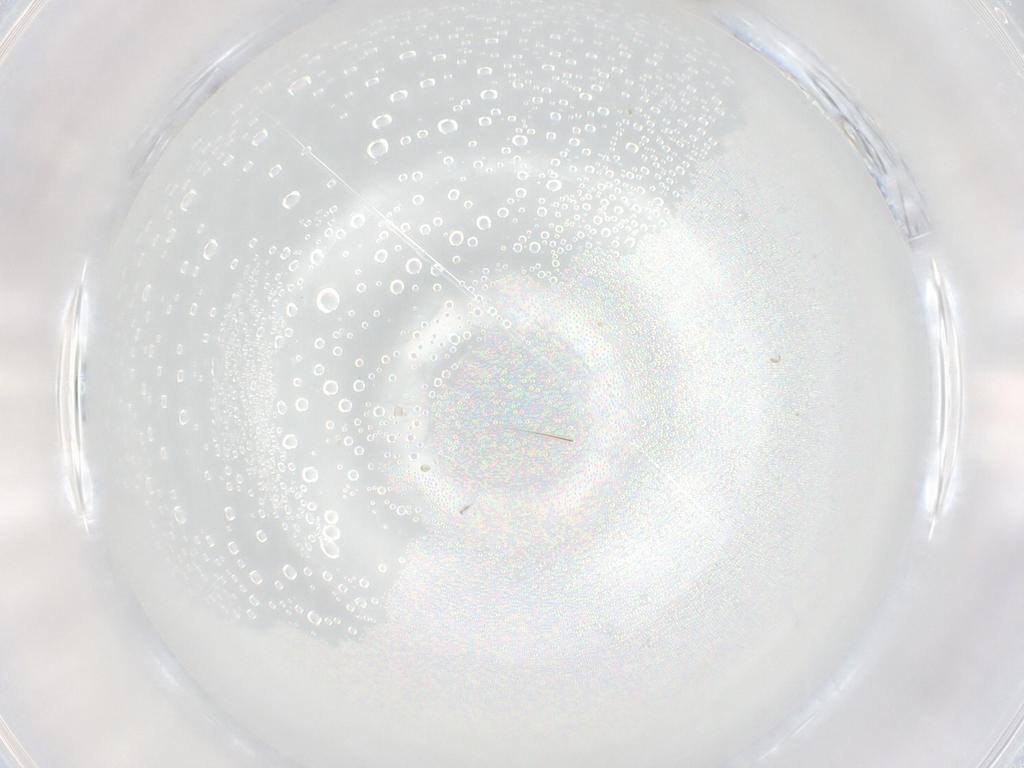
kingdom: Animalia
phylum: Arthropoda
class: Insecta
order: Diptera
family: Cecidomyiidae
